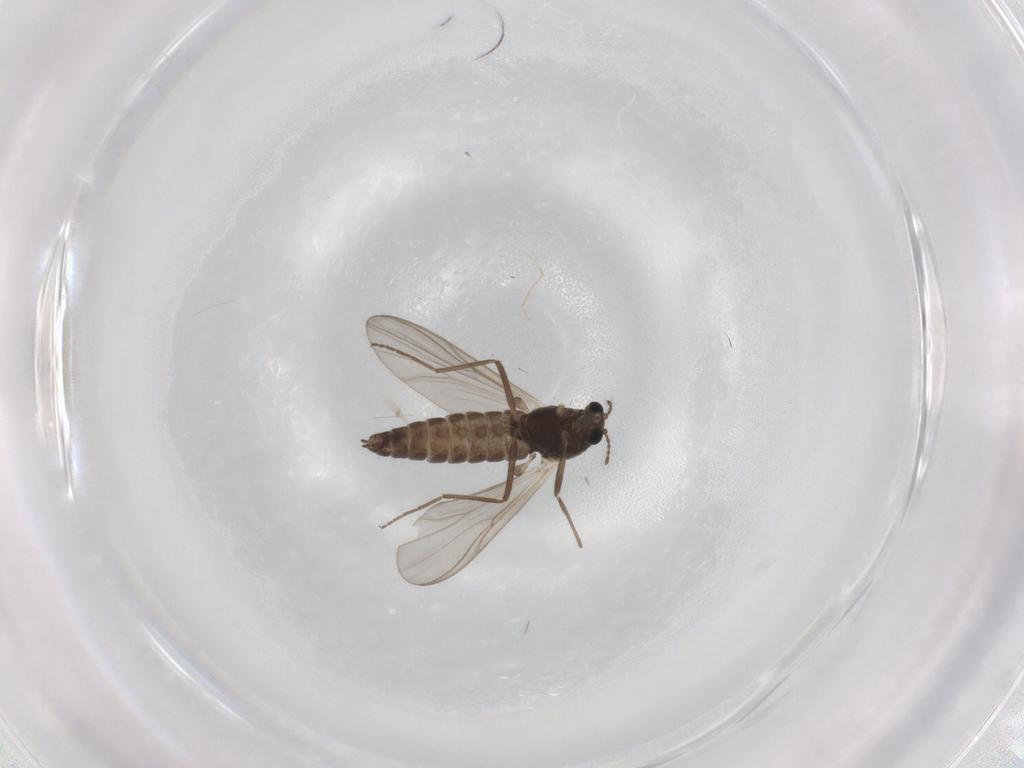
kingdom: Animalia
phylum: Arthropoda
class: Insecta
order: Diptera
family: Chironomidae
